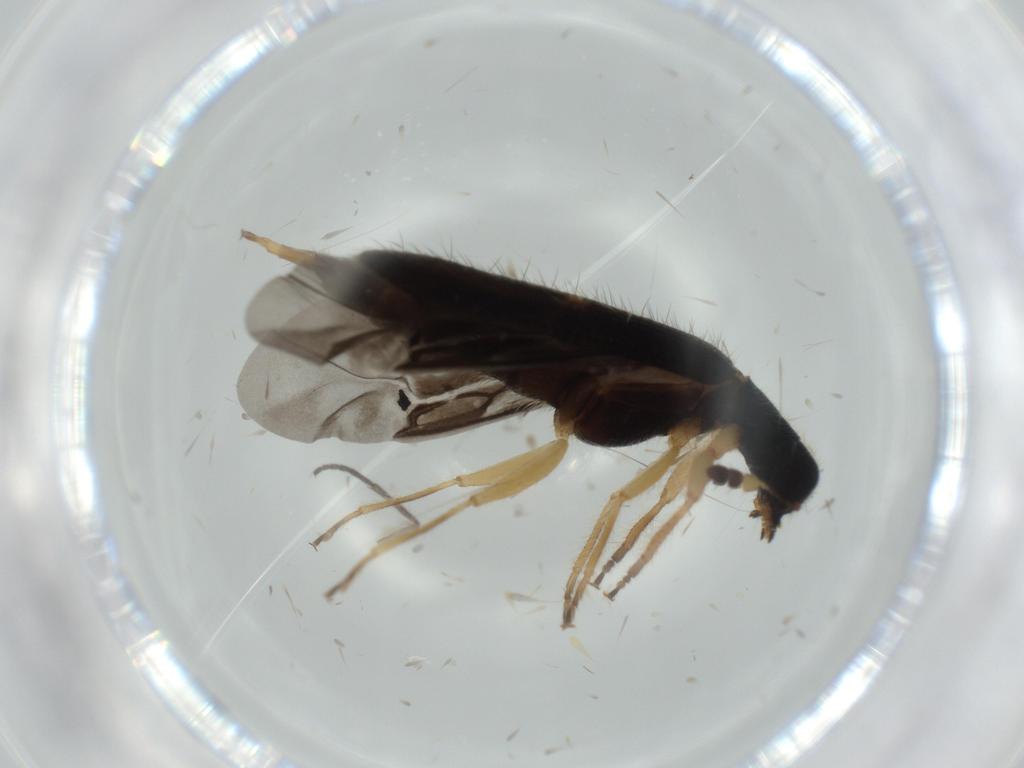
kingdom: Animalia
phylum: Arthropoda
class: Insecta
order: Coleoptera
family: Cleridae
